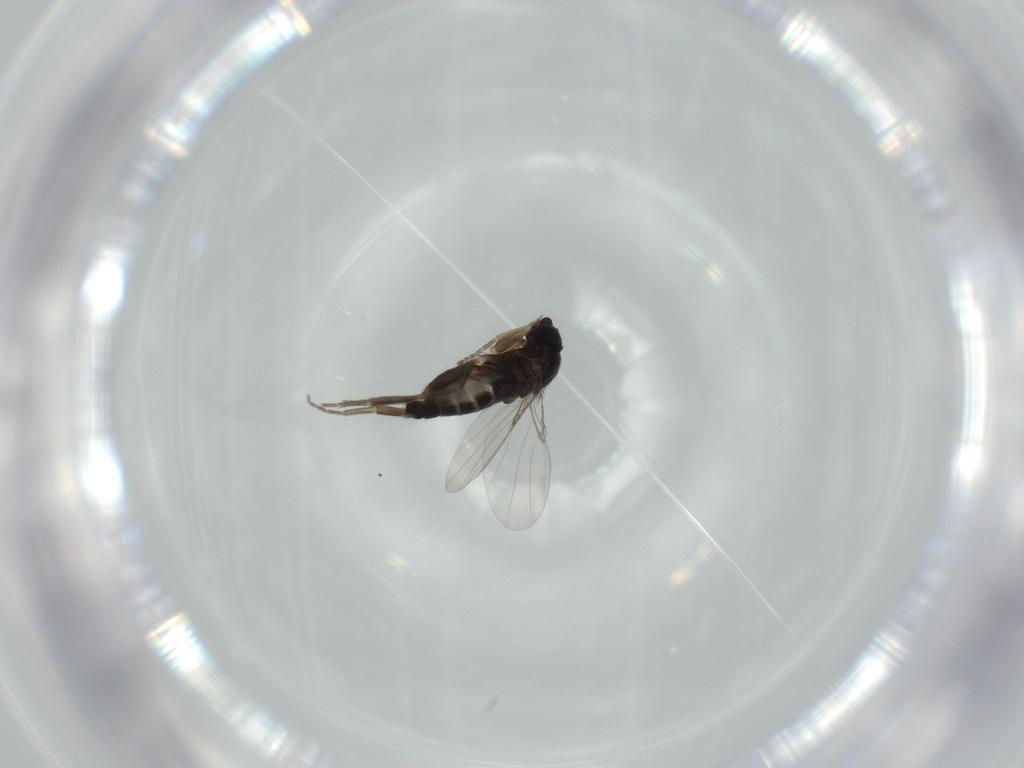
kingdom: Animalia
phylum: Arthropoda
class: Insecta
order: Diptera
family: Phoridae
